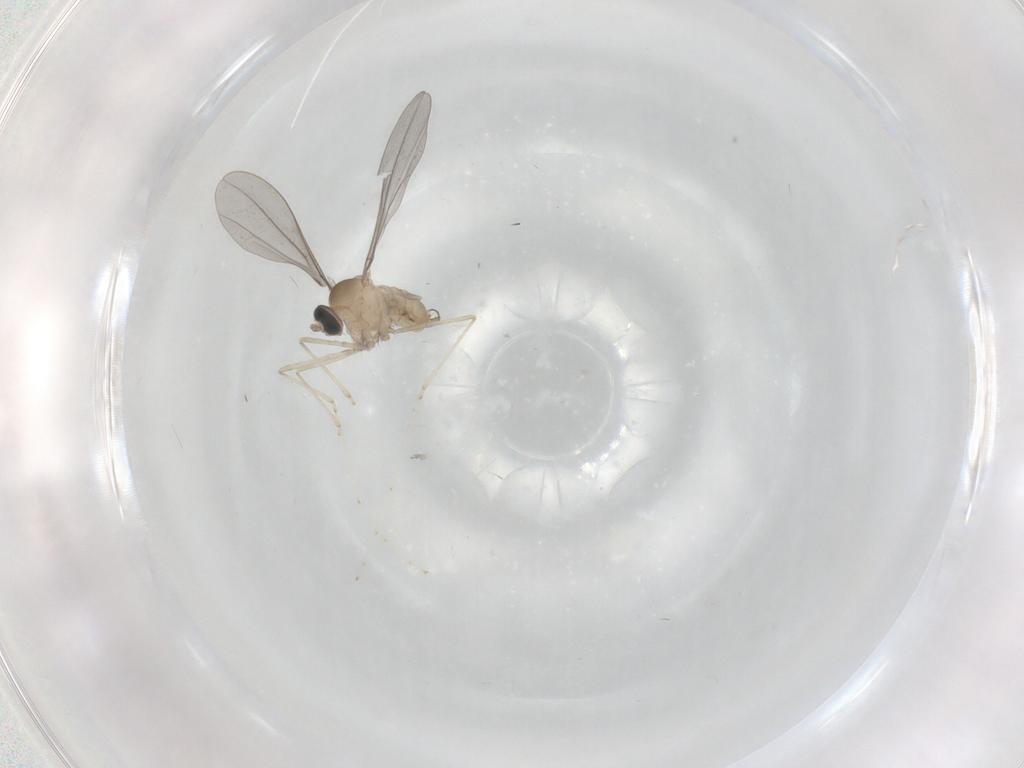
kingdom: Animalia
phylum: Arthropoda
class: Insecta
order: Diptera
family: Cecidomyiidae
